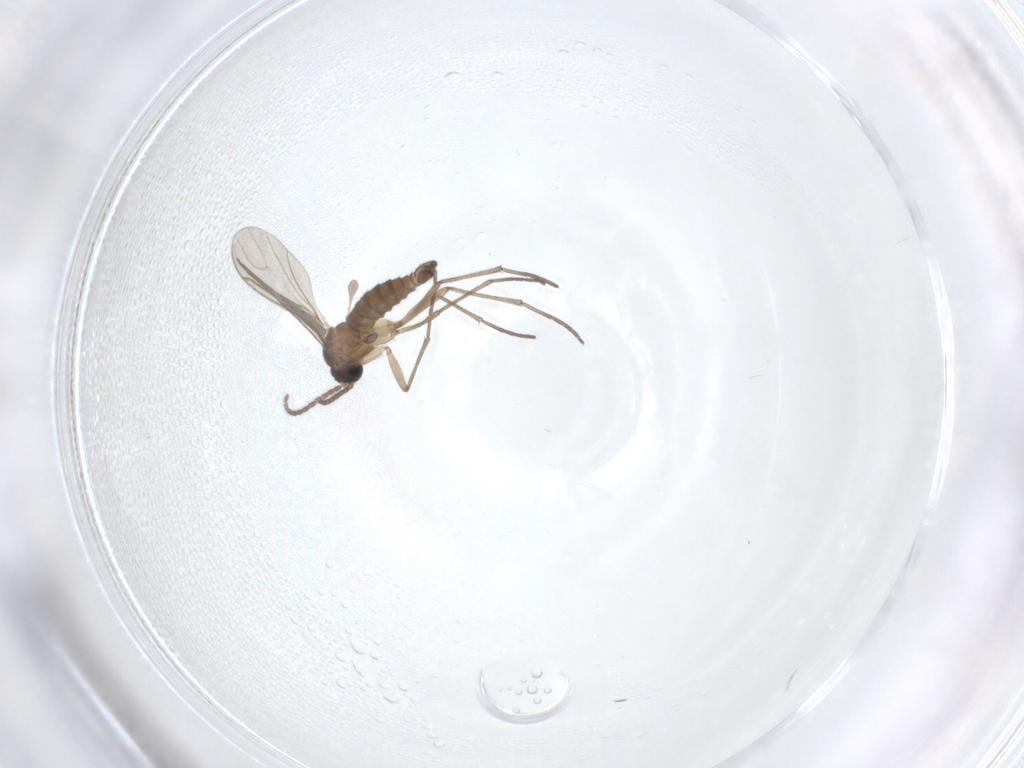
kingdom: Animalia
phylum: Arthropoda
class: Insecta
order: Diptera
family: Sciaridae
